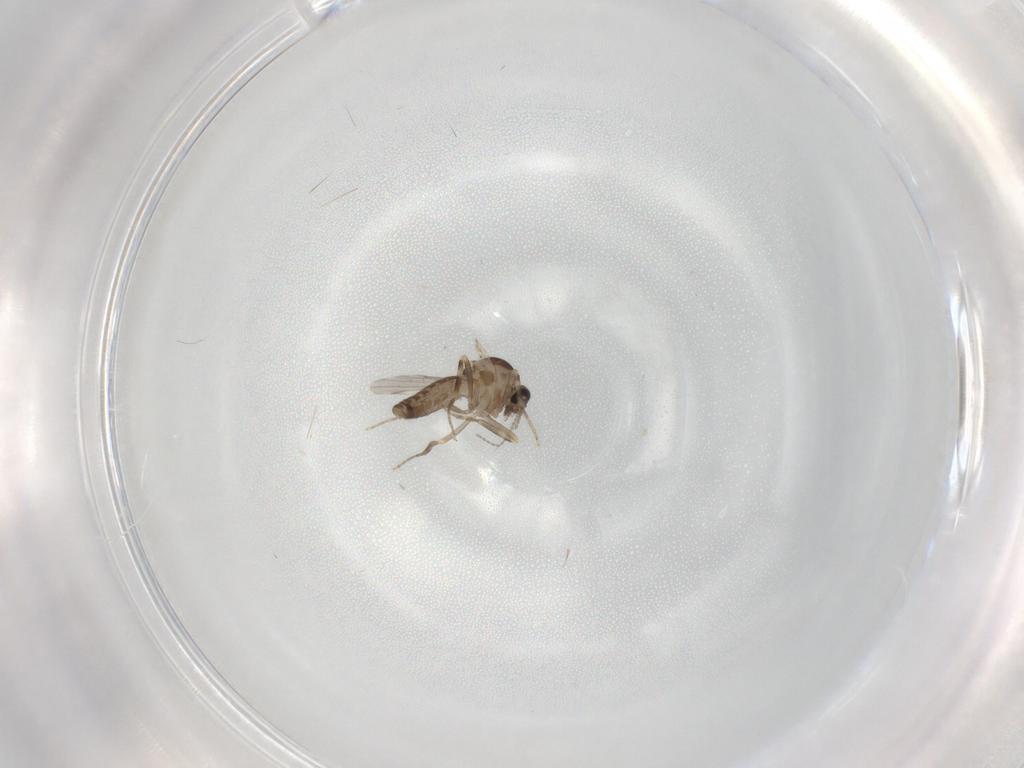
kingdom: Animalia
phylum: Arthropoda
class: Insecta
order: Diptera
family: Ceratopogonidae
